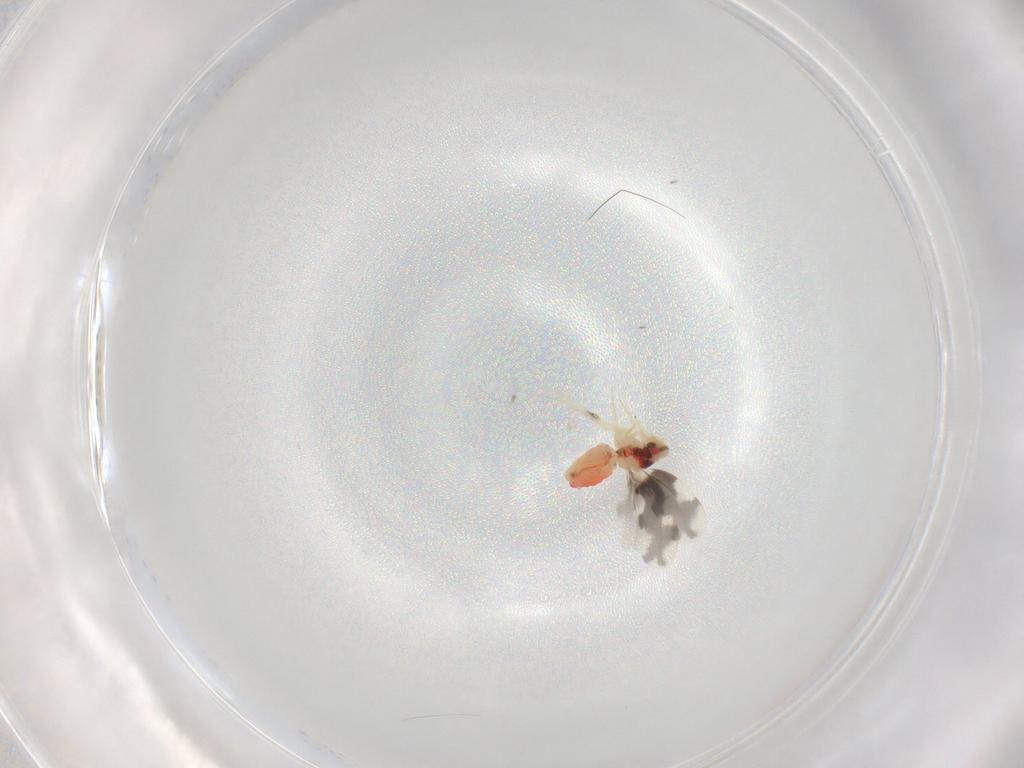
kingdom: Animalia
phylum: Arthropoda
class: Insecta
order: Hemiptera
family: Aleyrodidae
